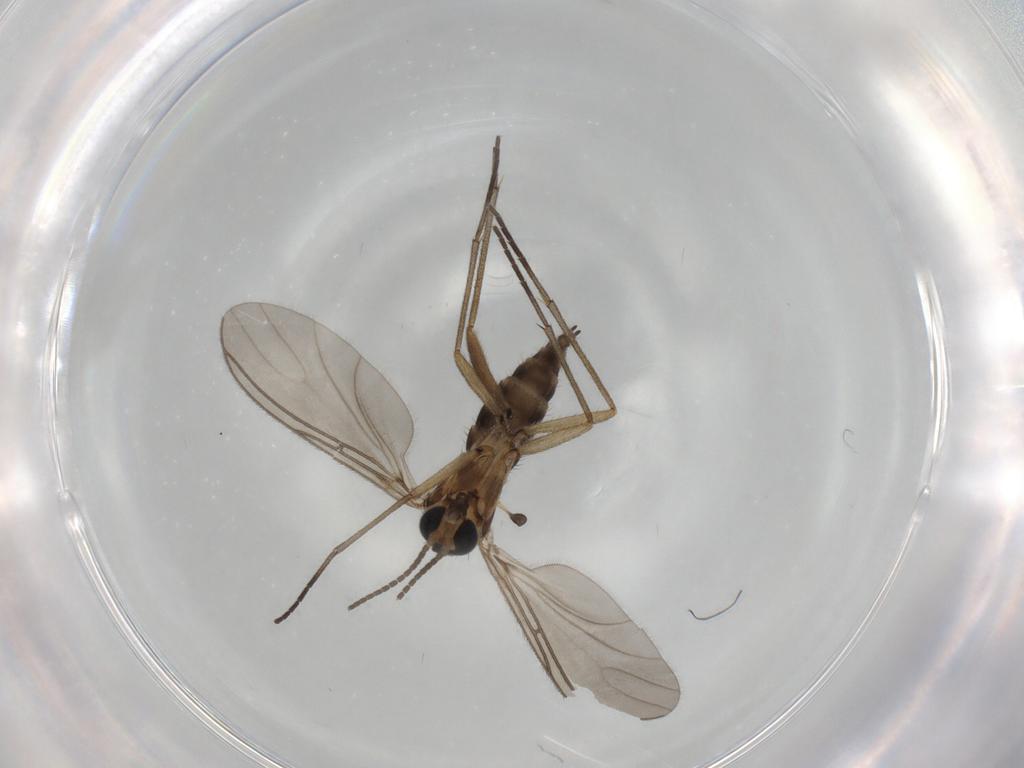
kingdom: Animalia
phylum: Arthropoda
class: Insecta
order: Diptera
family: Sciaridae
